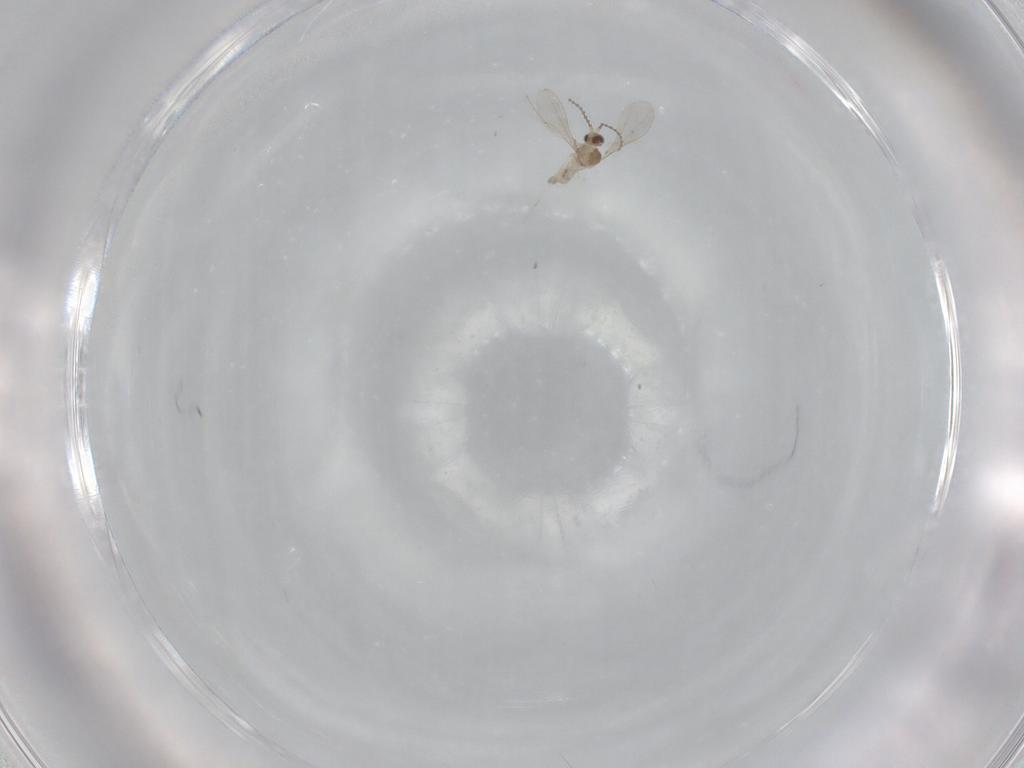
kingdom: Animalia
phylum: Arthropoda
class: Insecta
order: Diptera
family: Cecidomyiidae
